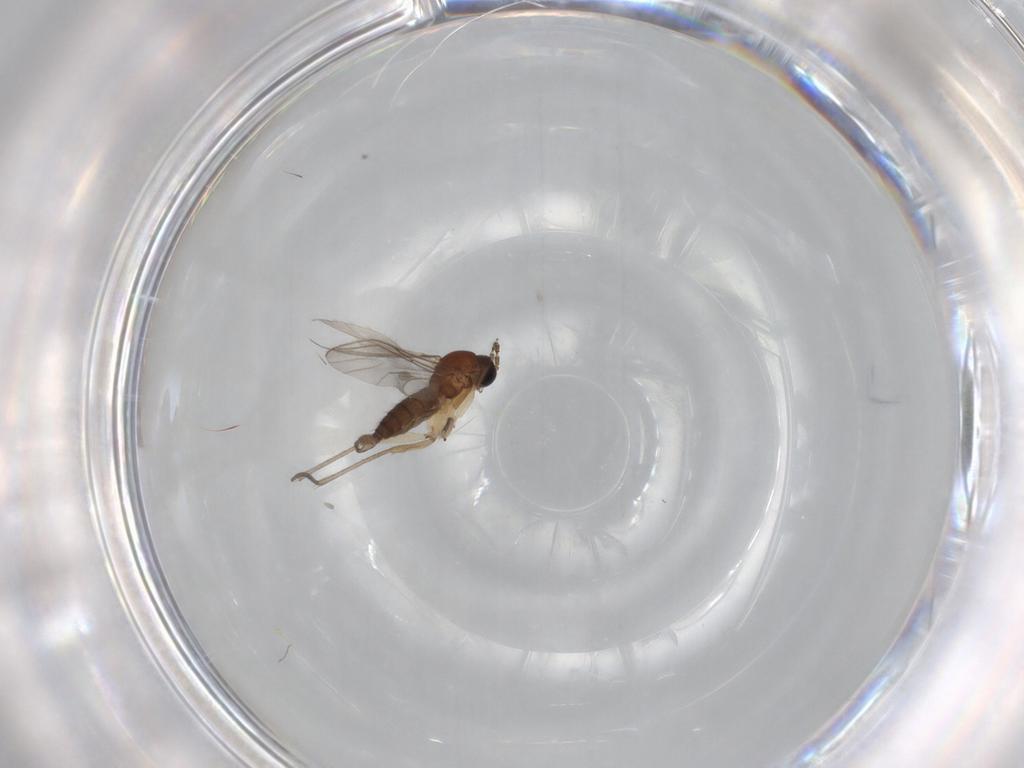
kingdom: Animalia
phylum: Arthropoda
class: Insecta
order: Diptera
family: Sciaridae
